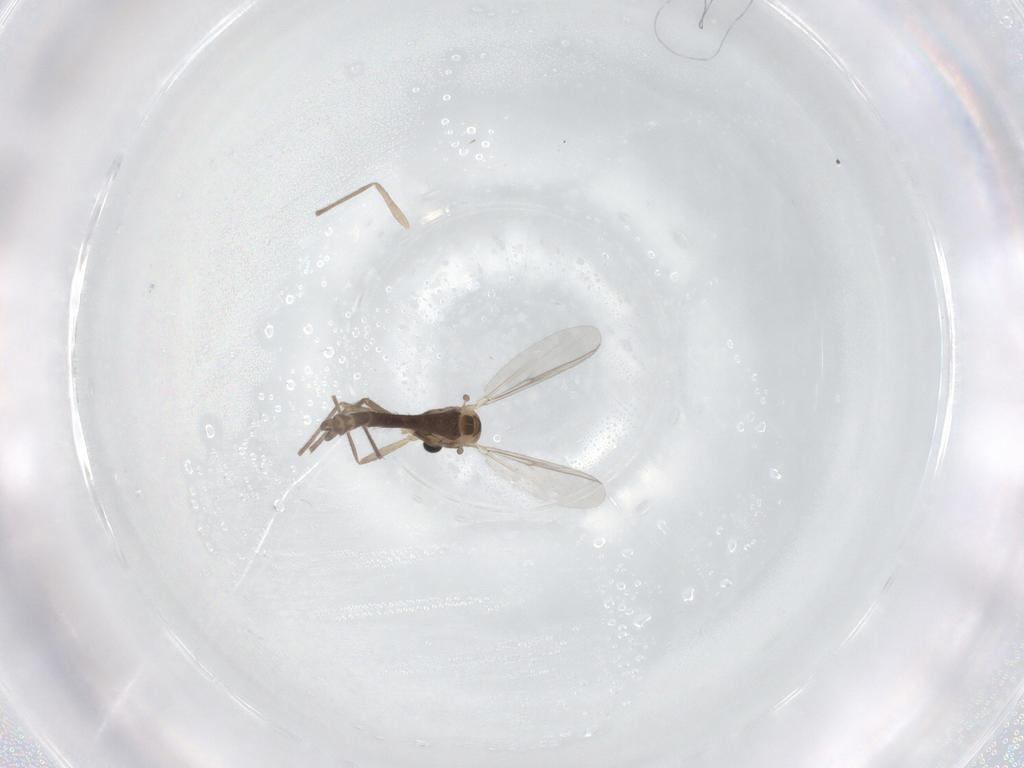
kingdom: Animalia
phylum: Arthropoda
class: Insecta
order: Diptera
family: Chironomidae
